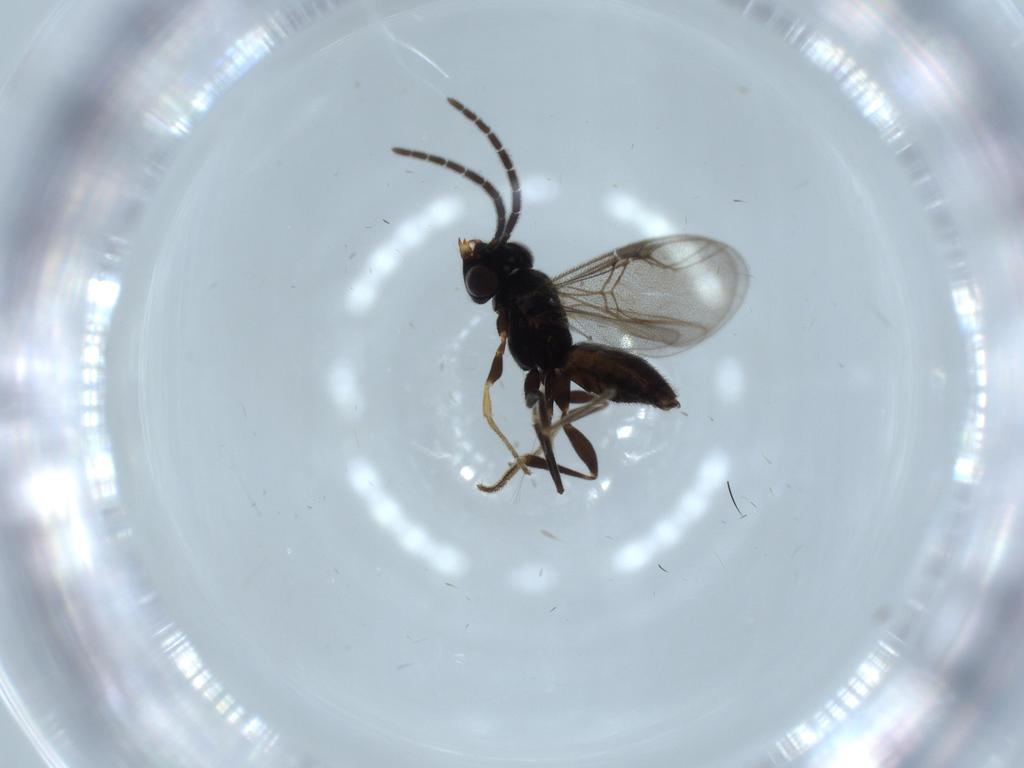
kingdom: Animalia
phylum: Arthropoda
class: Insecta
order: Hymenoptera
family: Dryinidae
